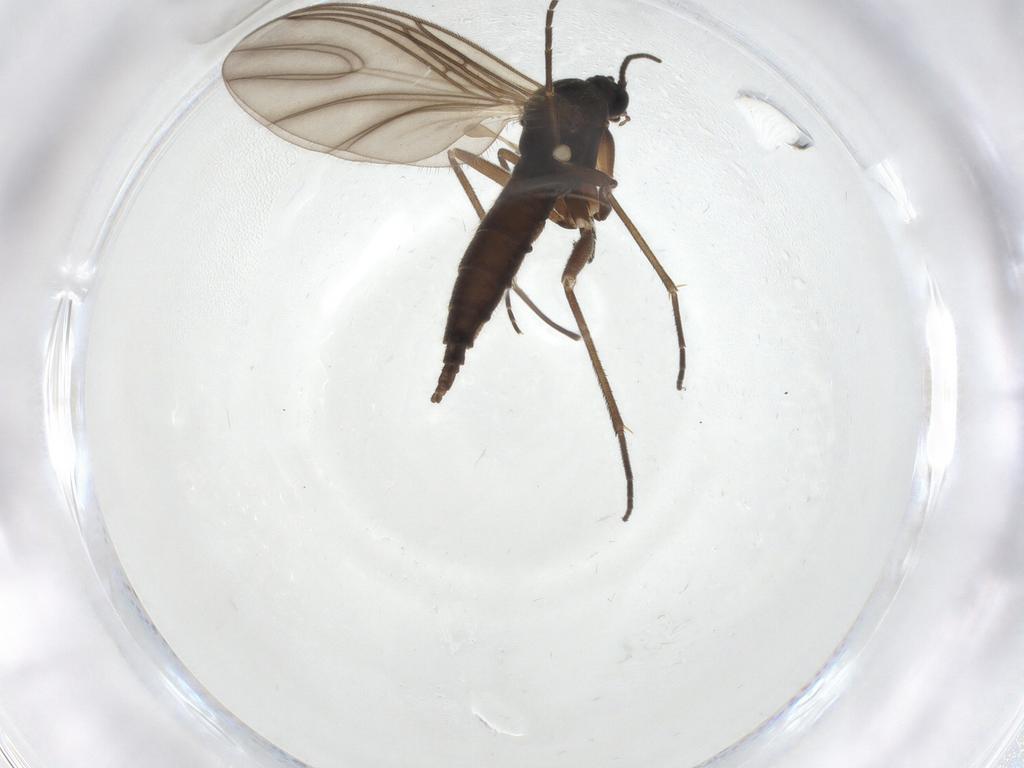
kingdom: Animalia
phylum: Arthropoda
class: Insecta
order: Diptera
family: Sciaridae
